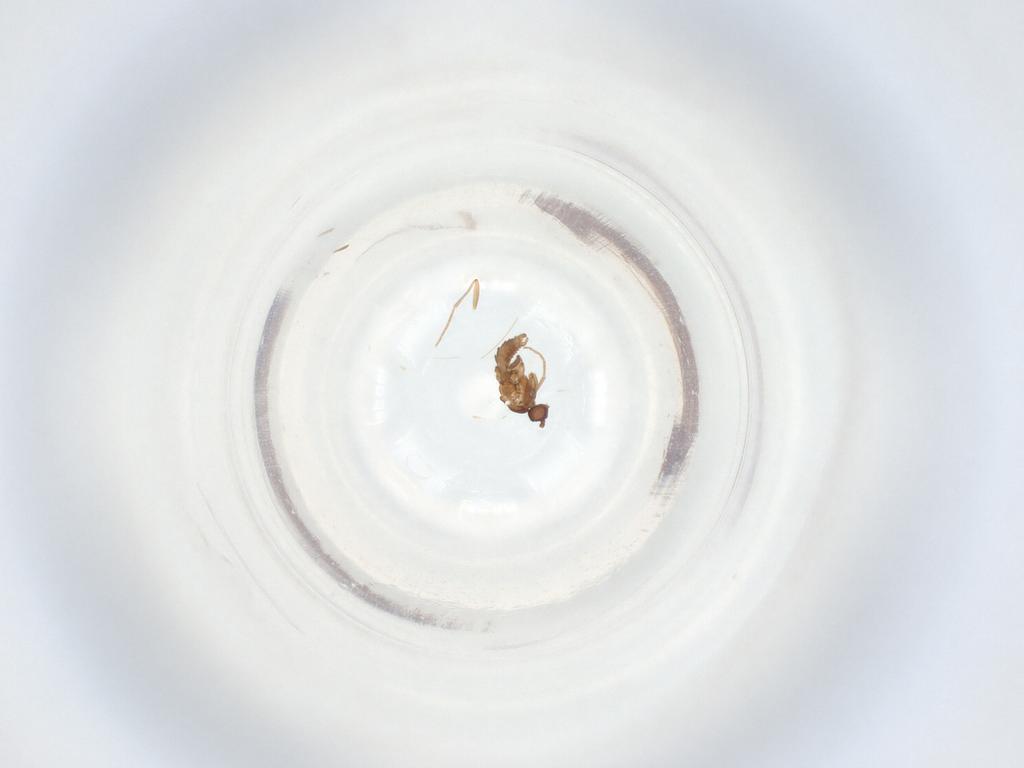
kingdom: Animalia
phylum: Arthropoda
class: Insecta
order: Diptera
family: Sciaridae
